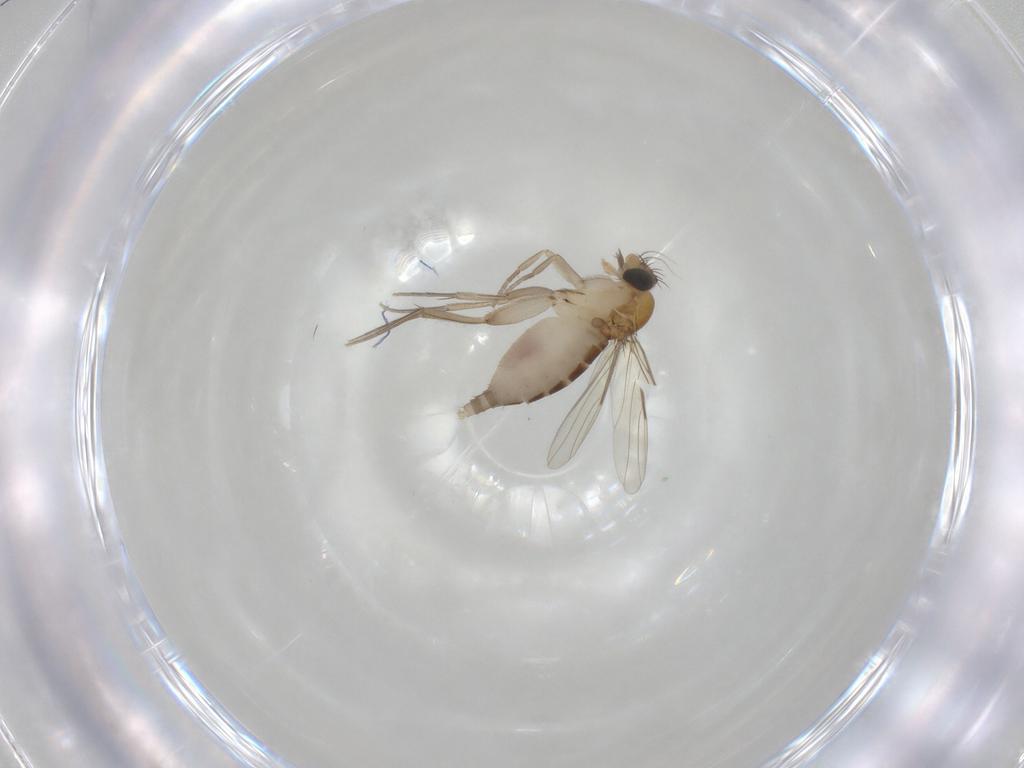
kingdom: Animalia
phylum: Arthropoda
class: Insecta
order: Diptera
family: Phoridae
